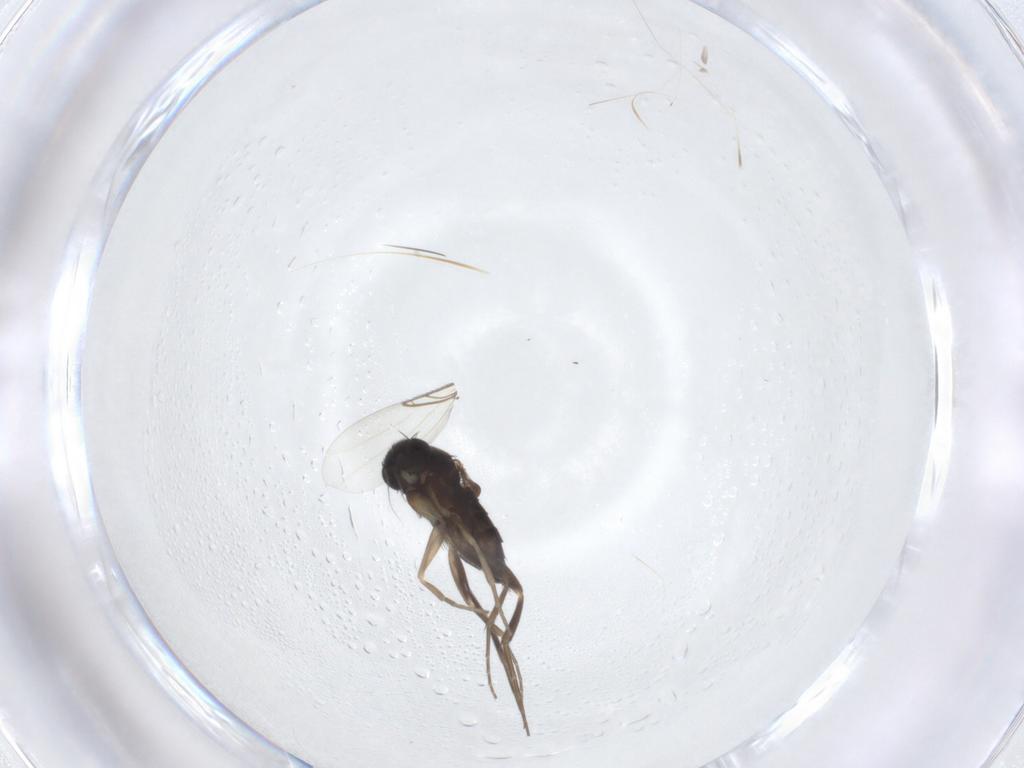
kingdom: Animalia
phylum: Arthropoda
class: Insecta
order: Diptera
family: Phoridae
